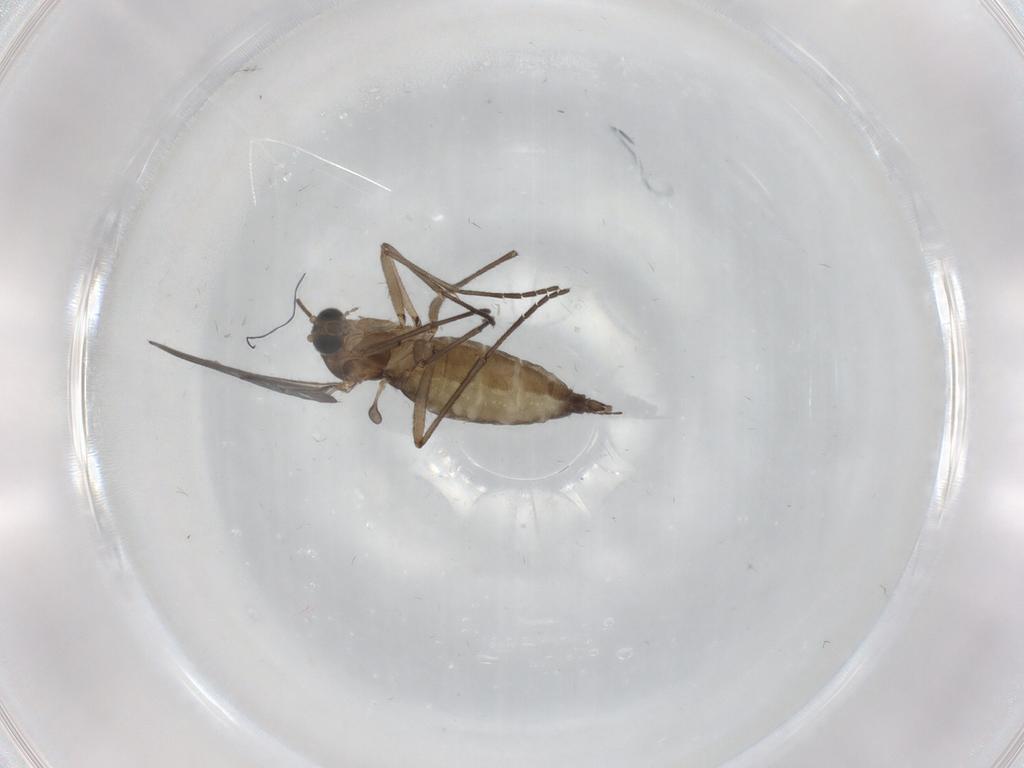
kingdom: Animalia
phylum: Arthropoda
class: Insecta
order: Diptera
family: Cecidomyiidae
